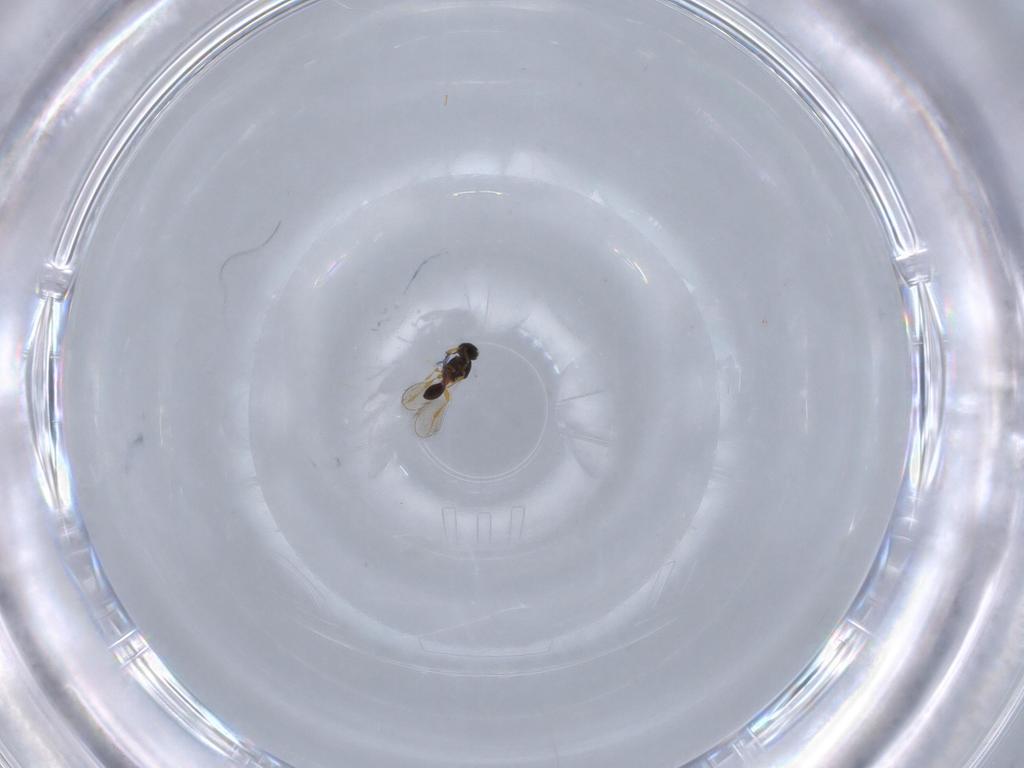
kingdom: Animalia
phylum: Arthropoda
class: Insecta
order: Hymenoptera
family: Platygastridae
